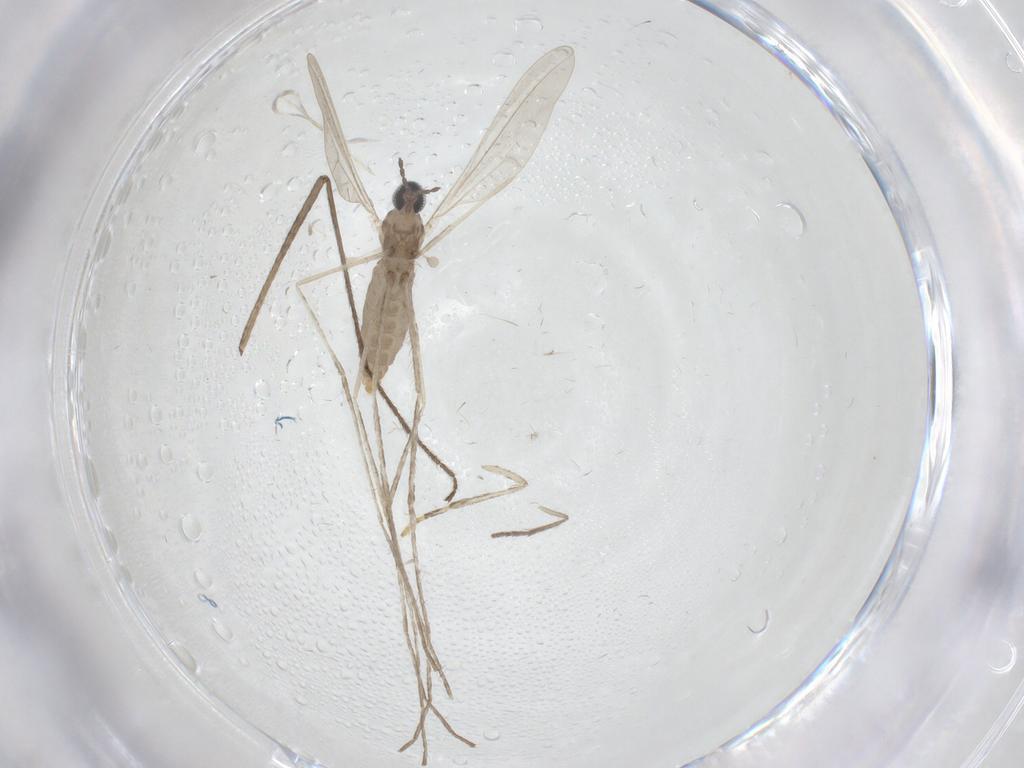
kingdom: Animalia
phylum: Arthropoda
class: Insecta
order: Diptera
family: Cecidomyiidae
